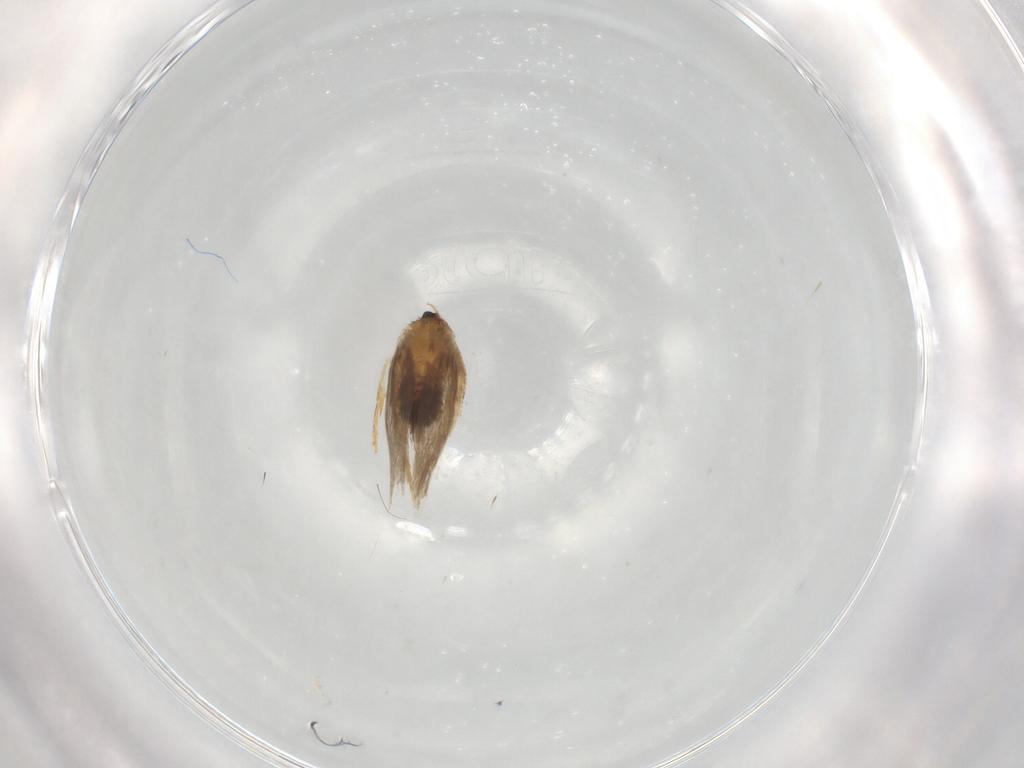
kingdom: Animalia
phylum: Arthropoda
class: Insecta
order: Lepidoptera
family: Nepticulidae
